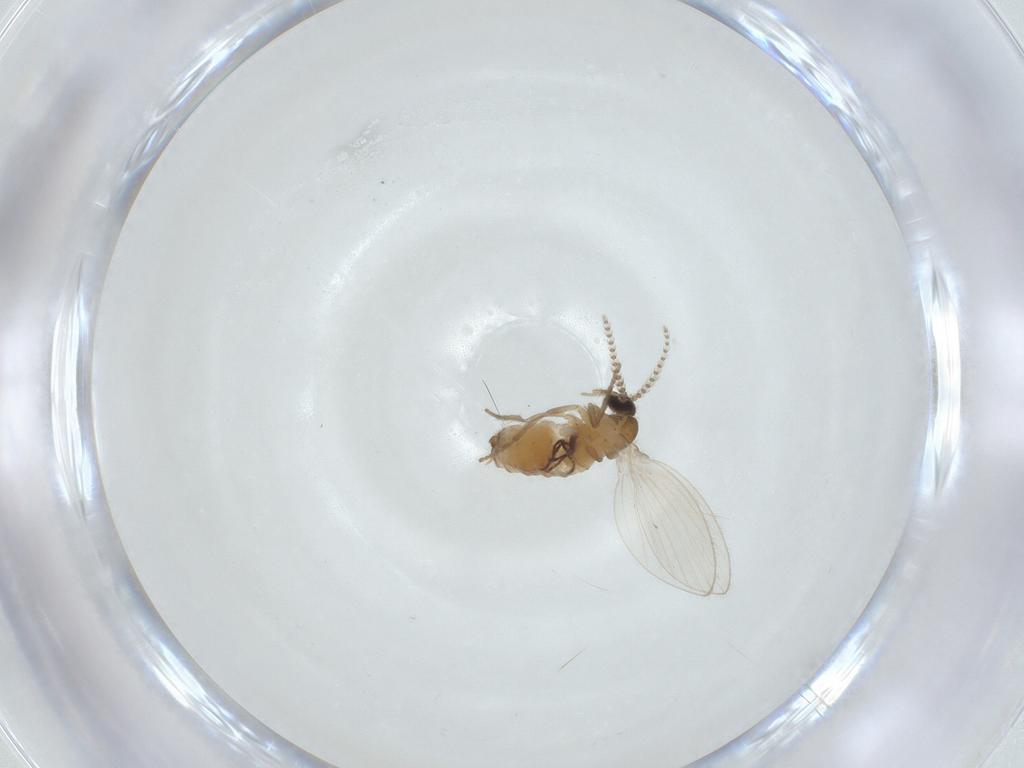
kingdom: Animalia
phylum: Arthropoda
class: Insecta
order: Diptera
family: Psychodidae
